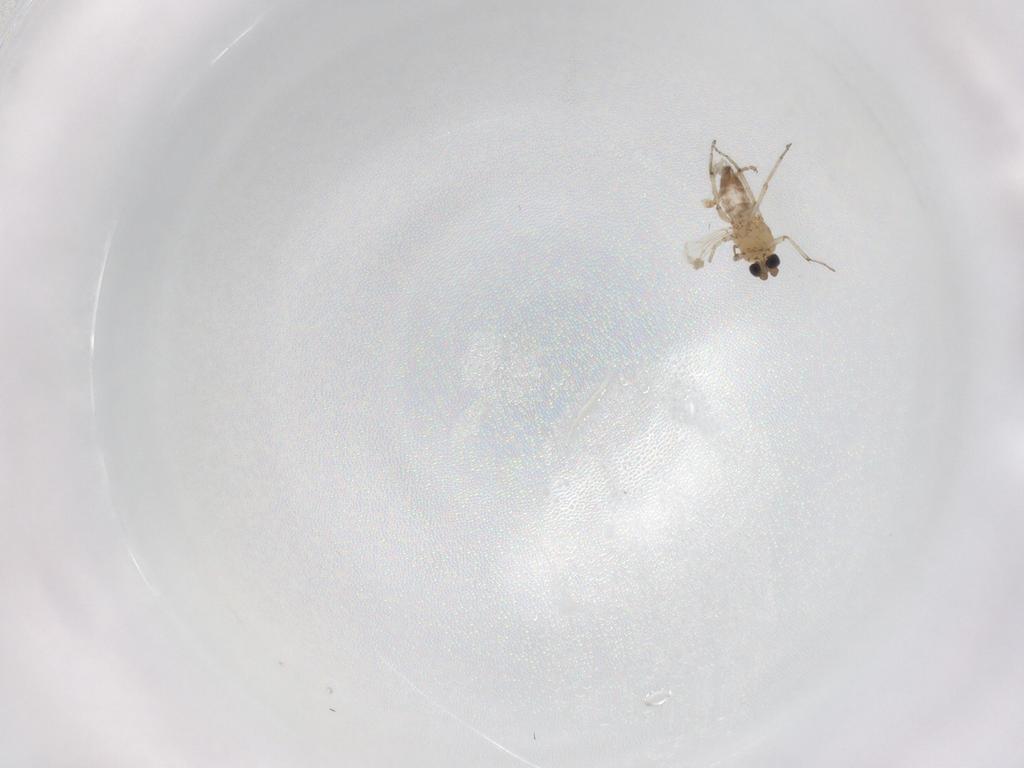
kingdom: Animalia
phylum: Arthropoda
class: Insecta
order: Diptera
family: Ceratopogonidae
